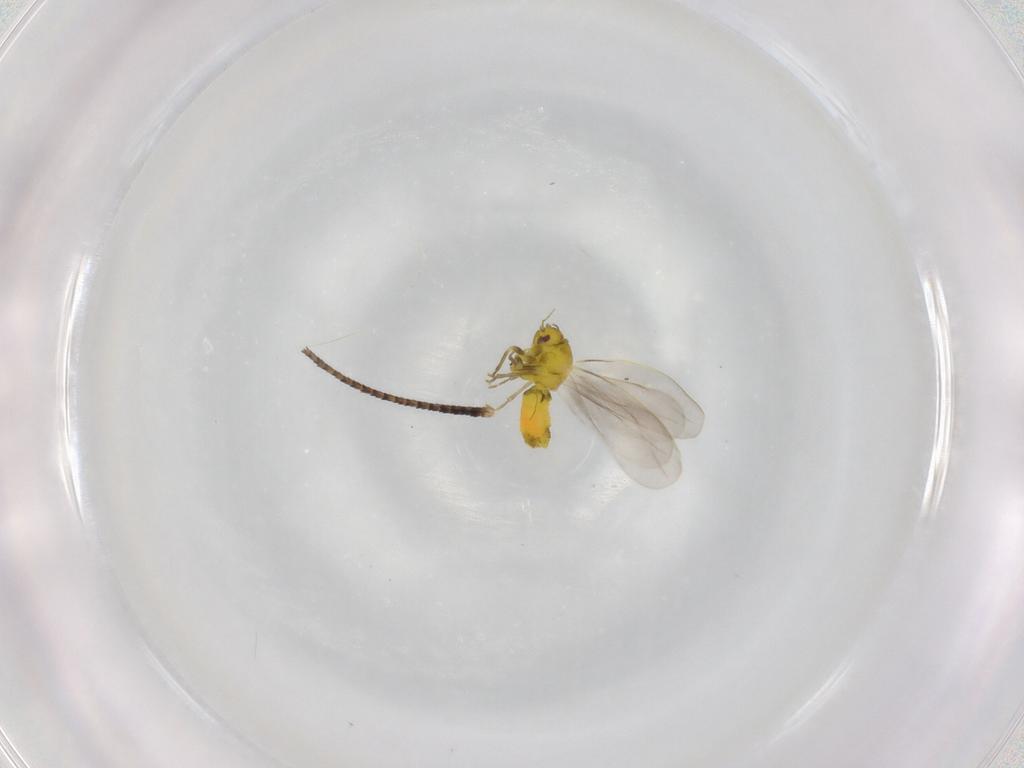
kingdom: Animalia
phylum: Arthropoda
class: Insecta
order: Hemiptera
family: Aleyrodidae
